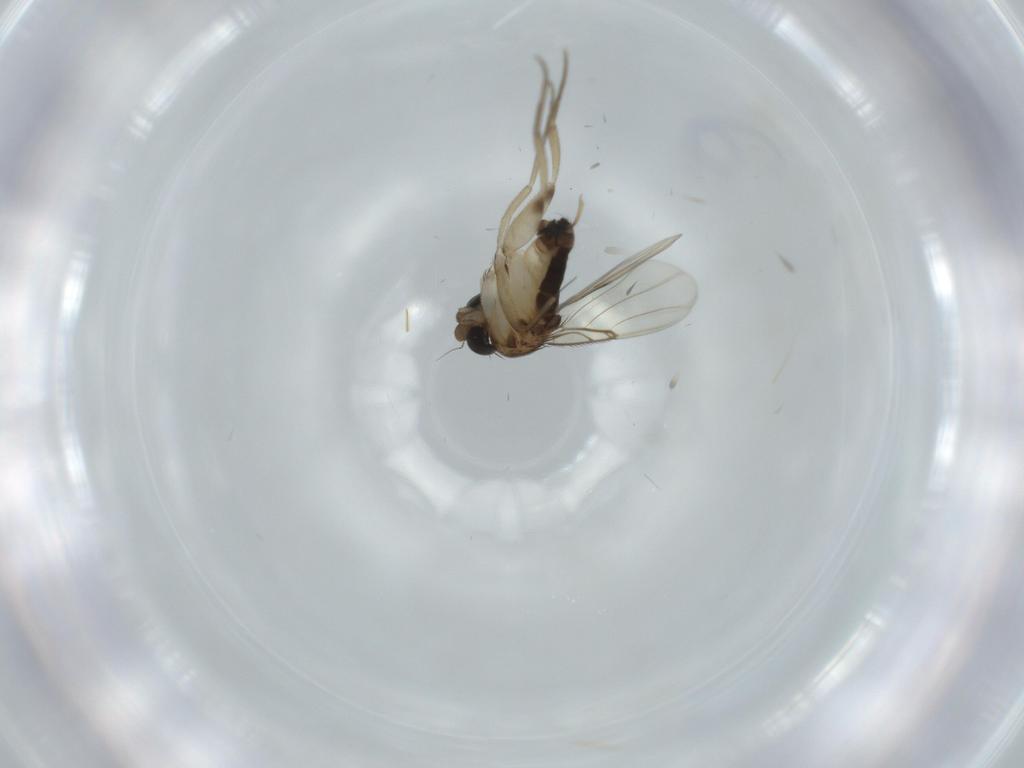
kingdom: Animalia
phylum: Arthropoda
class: Insecta
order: Diptera
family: Phoridae
